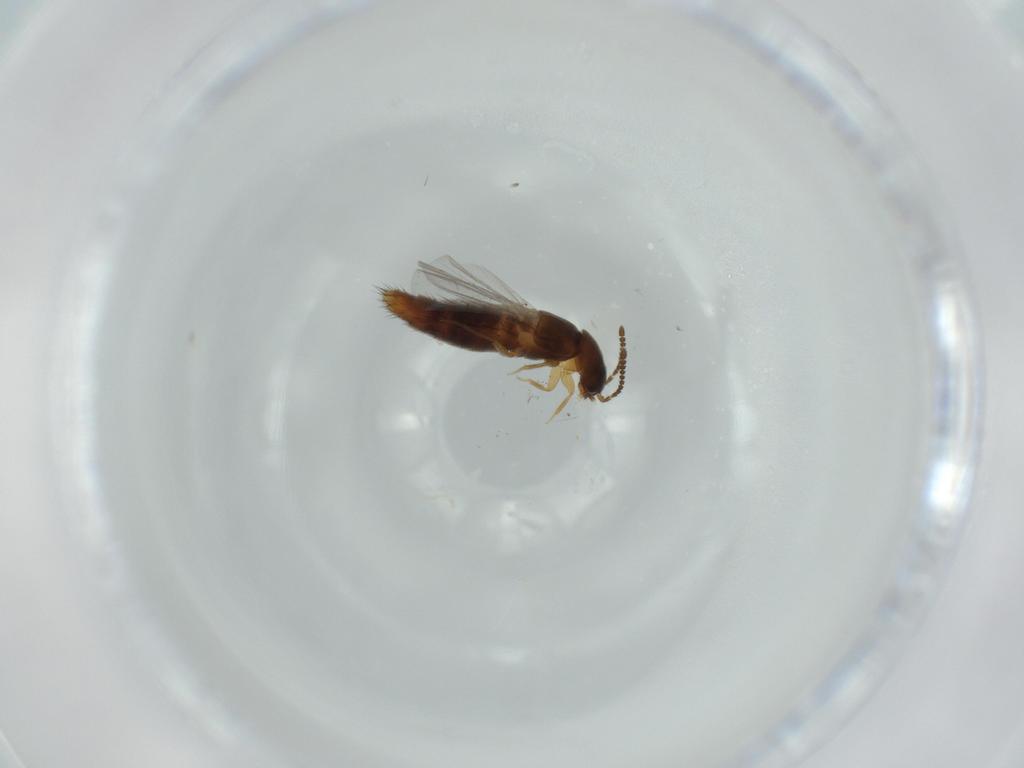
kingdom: Animalia
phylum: Arthropoda
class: Insecta
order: Coleoptera
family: Staphylinidae
